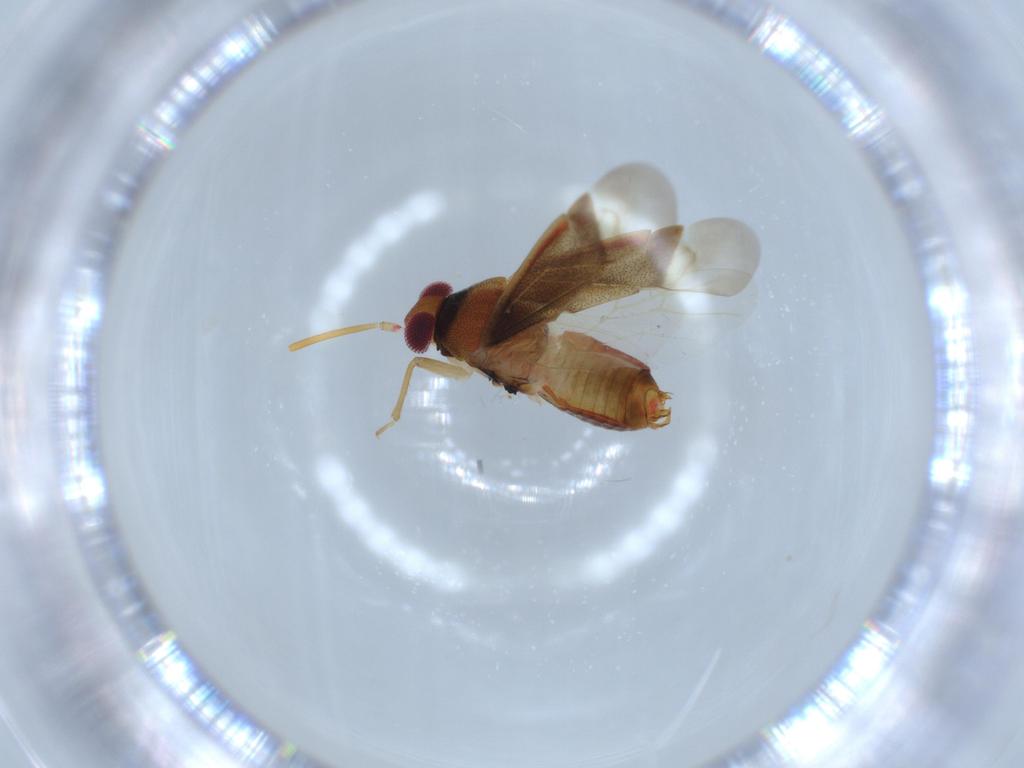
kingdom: Animalia
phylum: Arthropoda
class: Insecta
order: Hemiptera
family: Miridae
